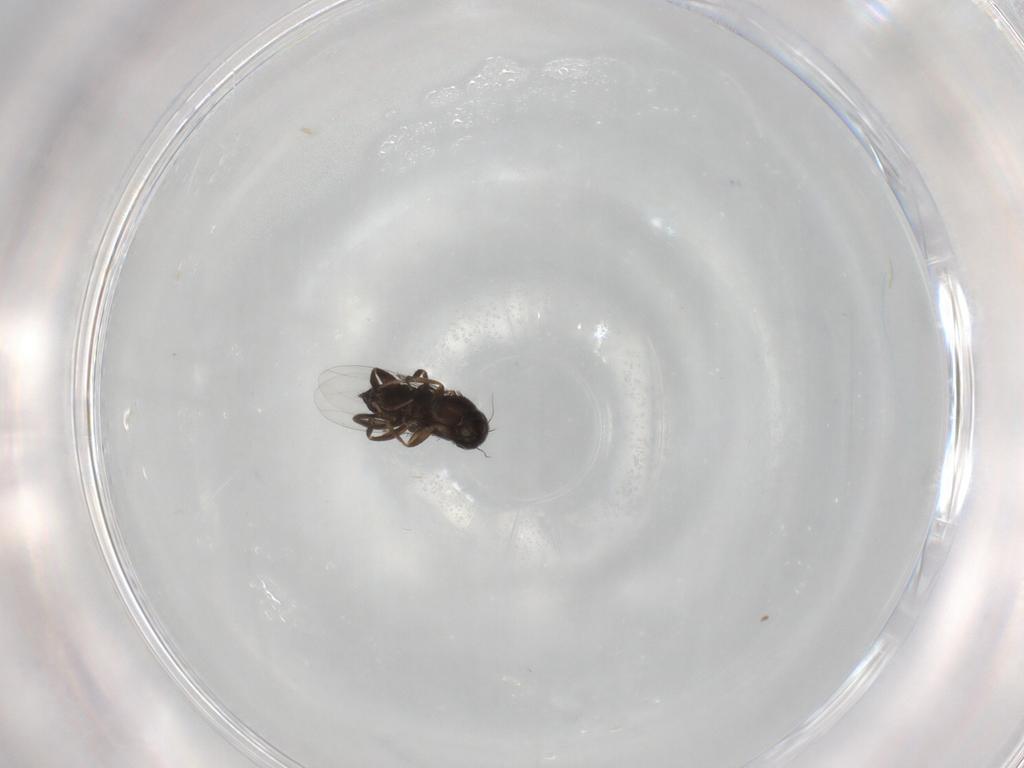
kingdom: Animalia
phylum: Arthropoda
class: Insecta
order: Diptera
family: Phoridae
